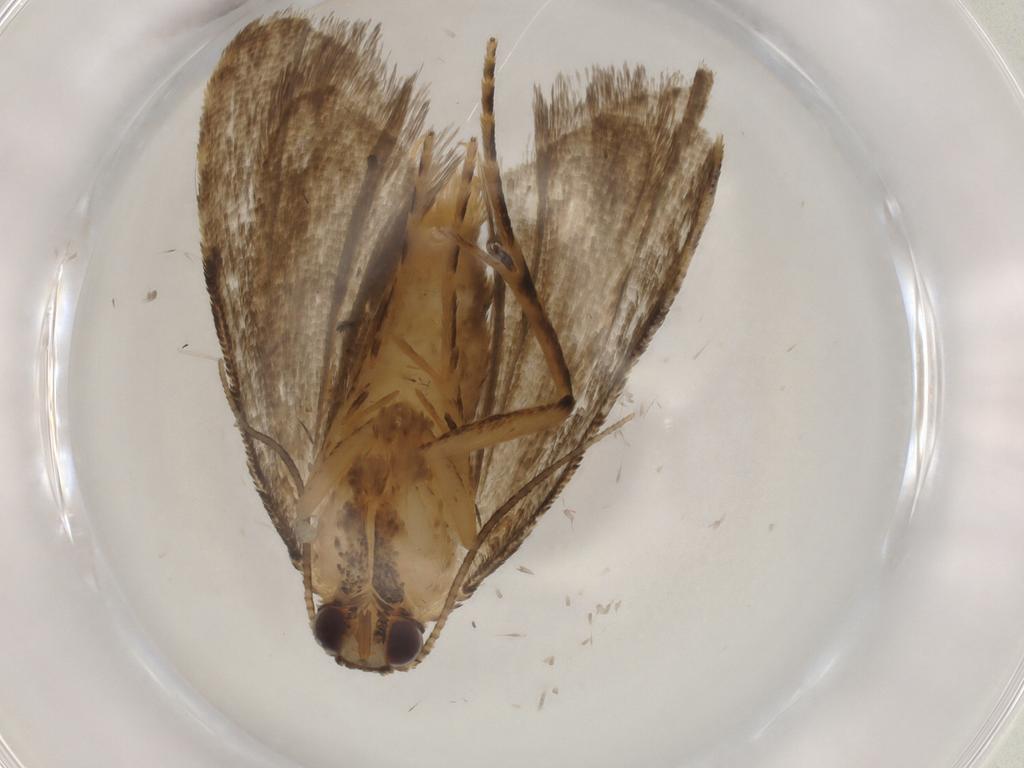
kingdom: Animalia
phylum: Arthropoda
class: Insecta
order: Lepidoptera
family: Erebidae
